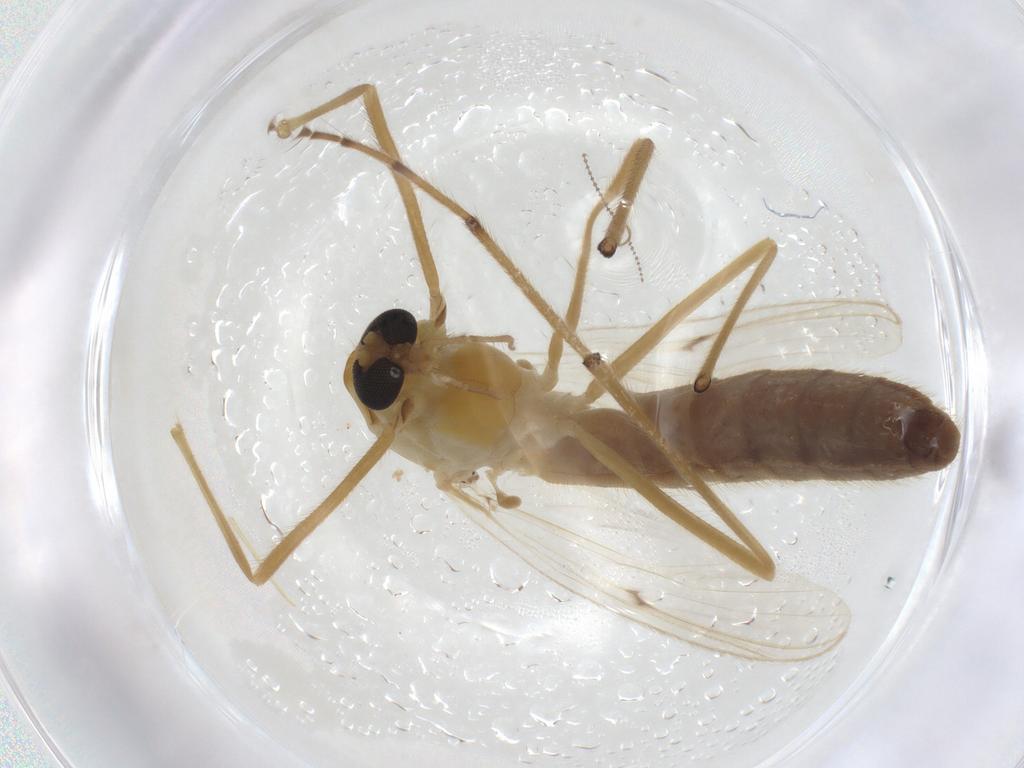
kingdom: Animalia
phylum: Arthropoda
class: Insecta
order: Diptera
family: Chironomidae
